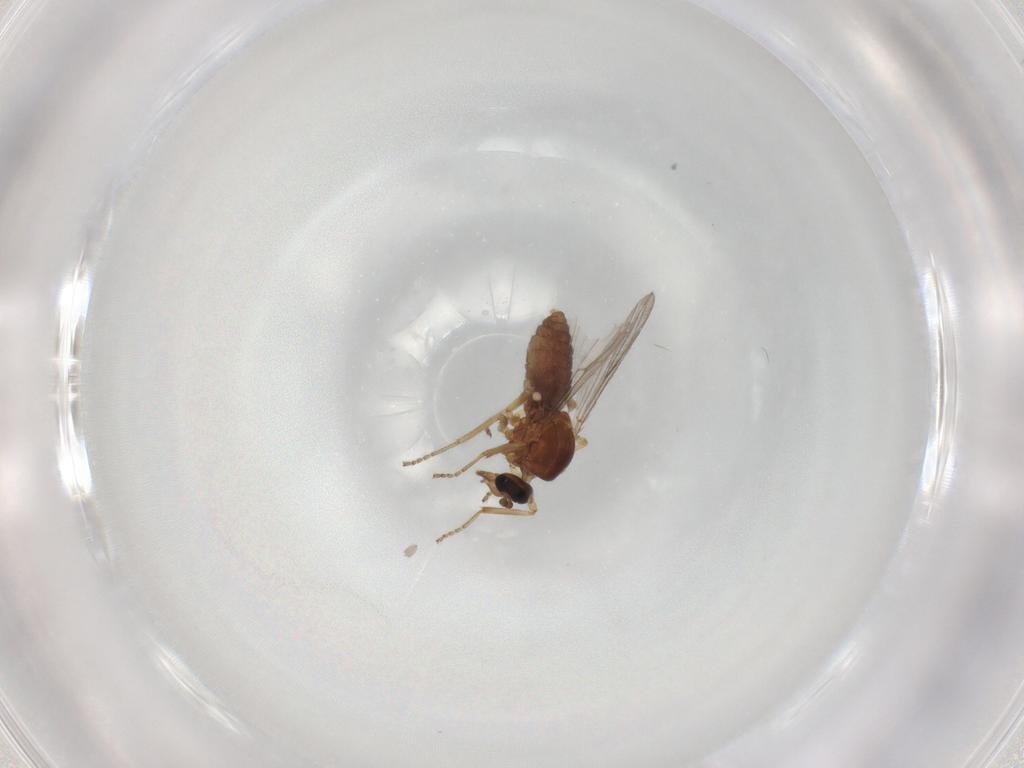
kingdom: Animalia
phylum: Arthropoda
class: Insecta
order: Diptera
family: Ceratopogonidae
